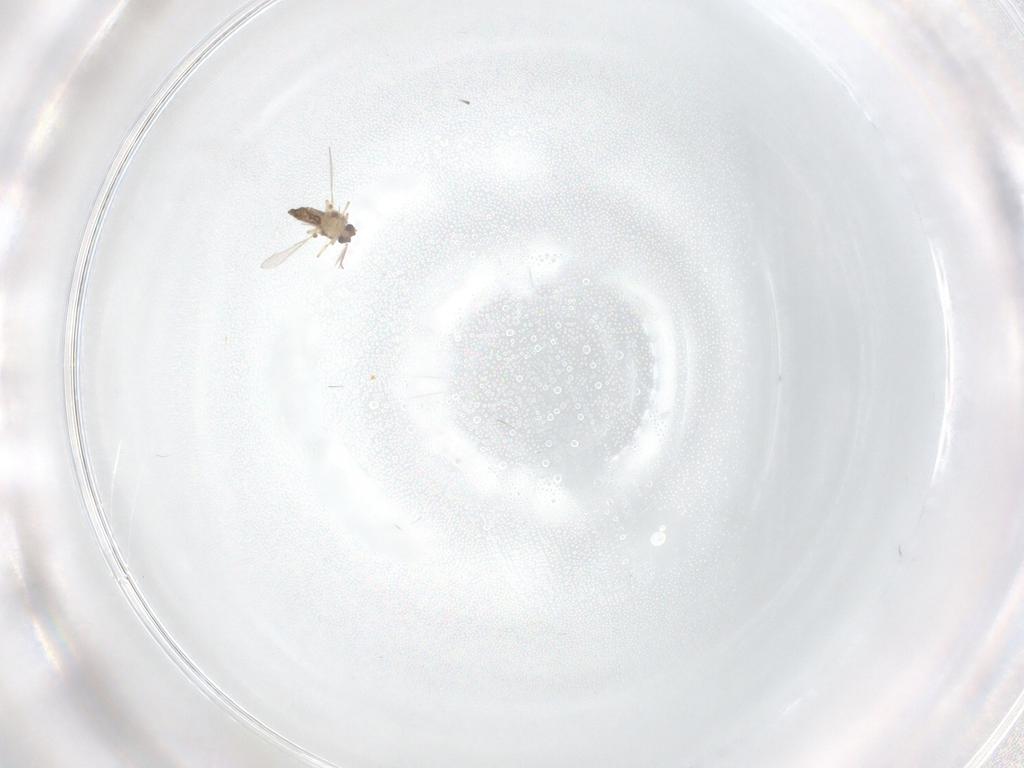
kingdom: Animalia
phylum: Arthropoda
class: Insecta
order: Diptera
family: Ceratopogonidae
